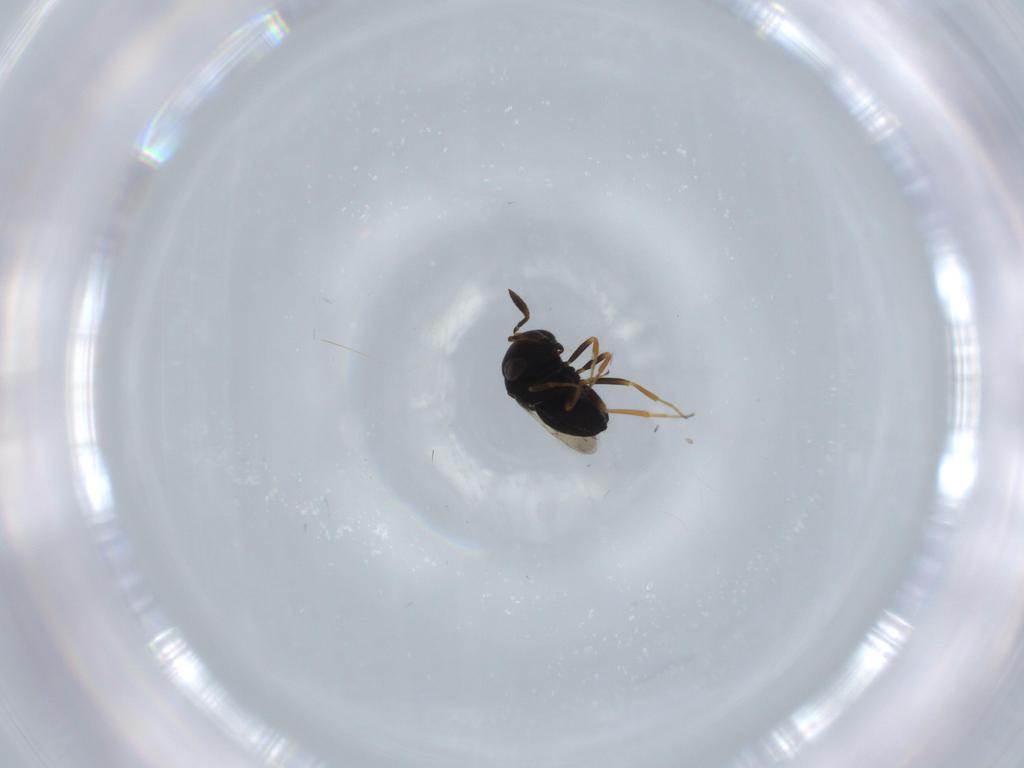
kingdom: Animalia
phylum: Arthropoda
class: Insecta
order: Hymenoptera
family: Scelionidae
